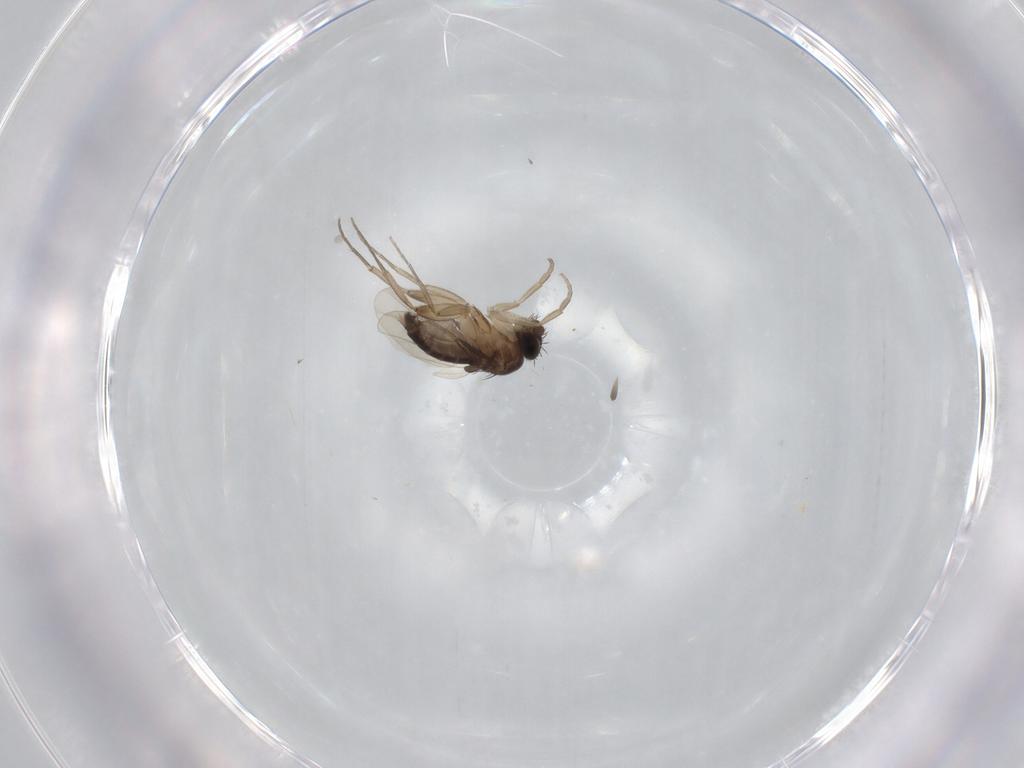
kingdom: Animalia
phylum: Arthropoda
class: Insecta
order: Diptera
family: Phoridae
